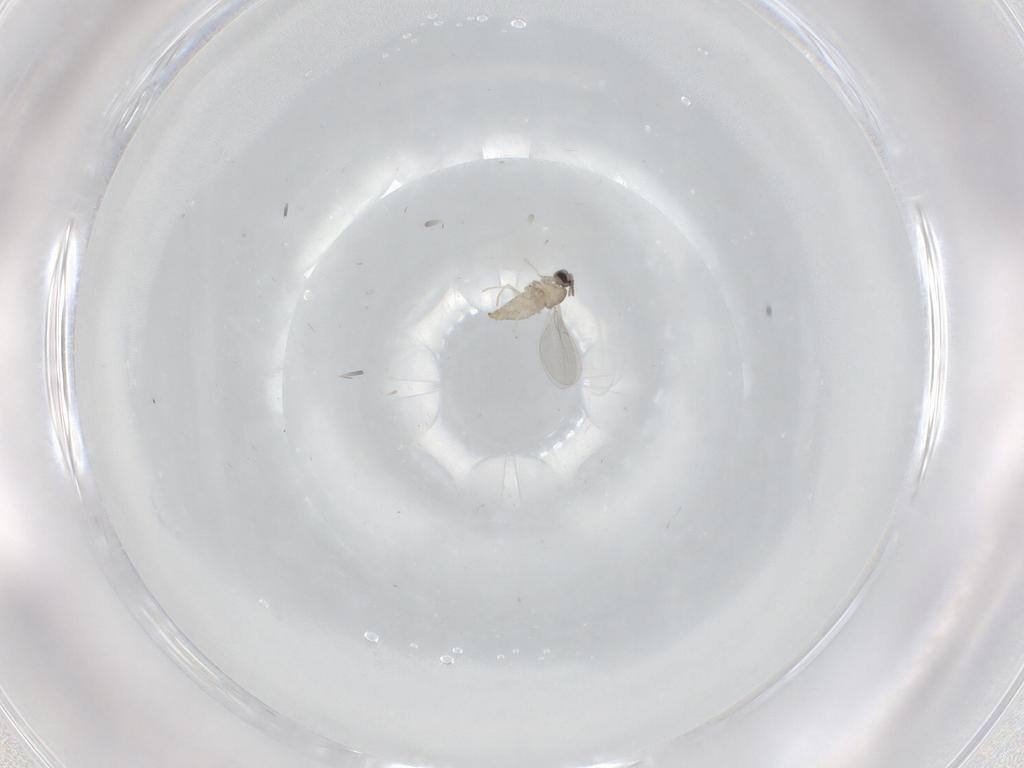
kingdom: Animalia
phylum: Arthropoda
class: Insecta
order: Diptera
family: Cecidomyiidae
